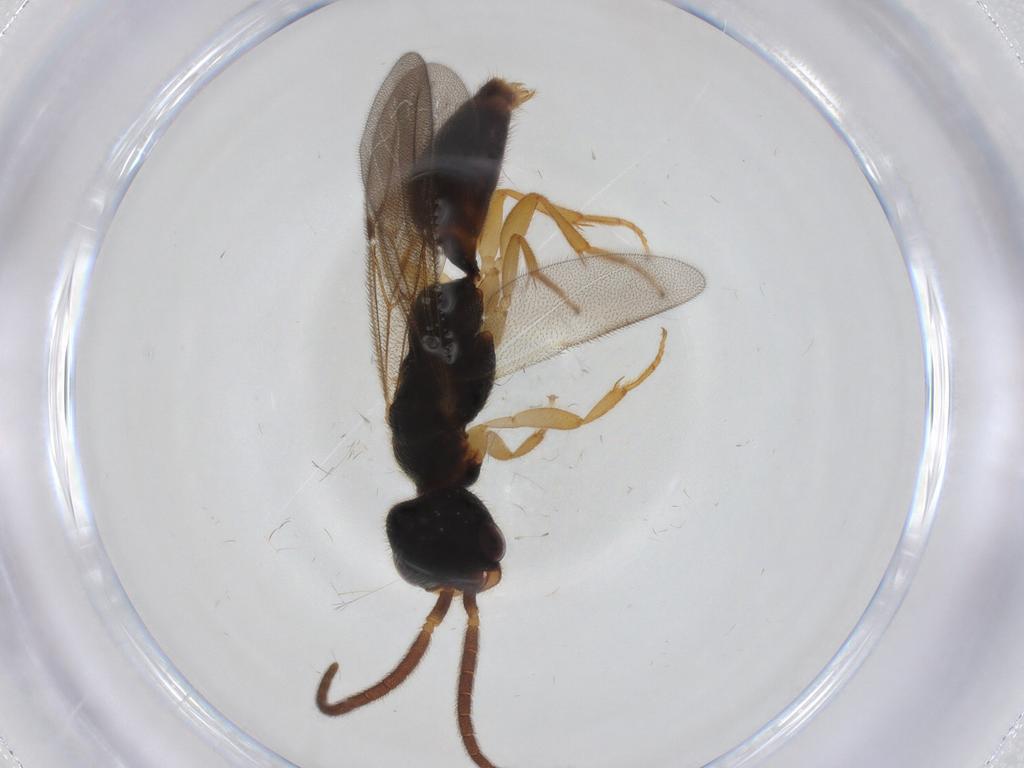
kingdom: Animalia
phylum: Arthropoda
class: Insecta
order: Hymenoptera
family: Bethylidae
